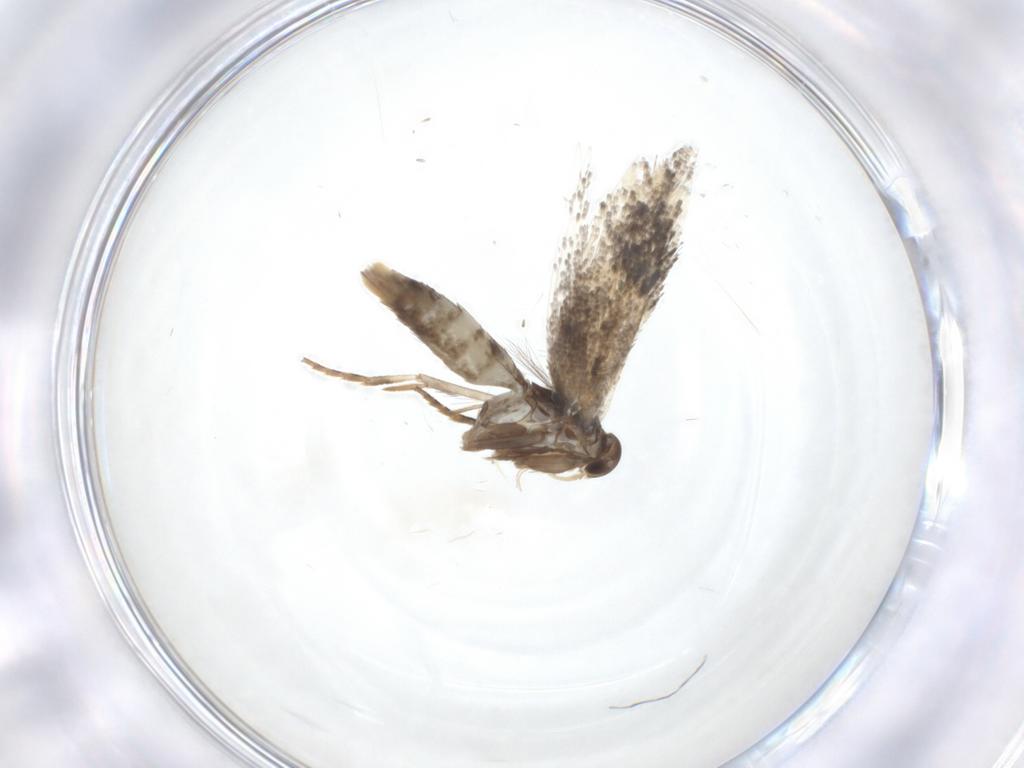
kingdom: Animalia
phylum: Arthropoda
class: Insecta
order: Lepidoptera
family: Elachistidae
